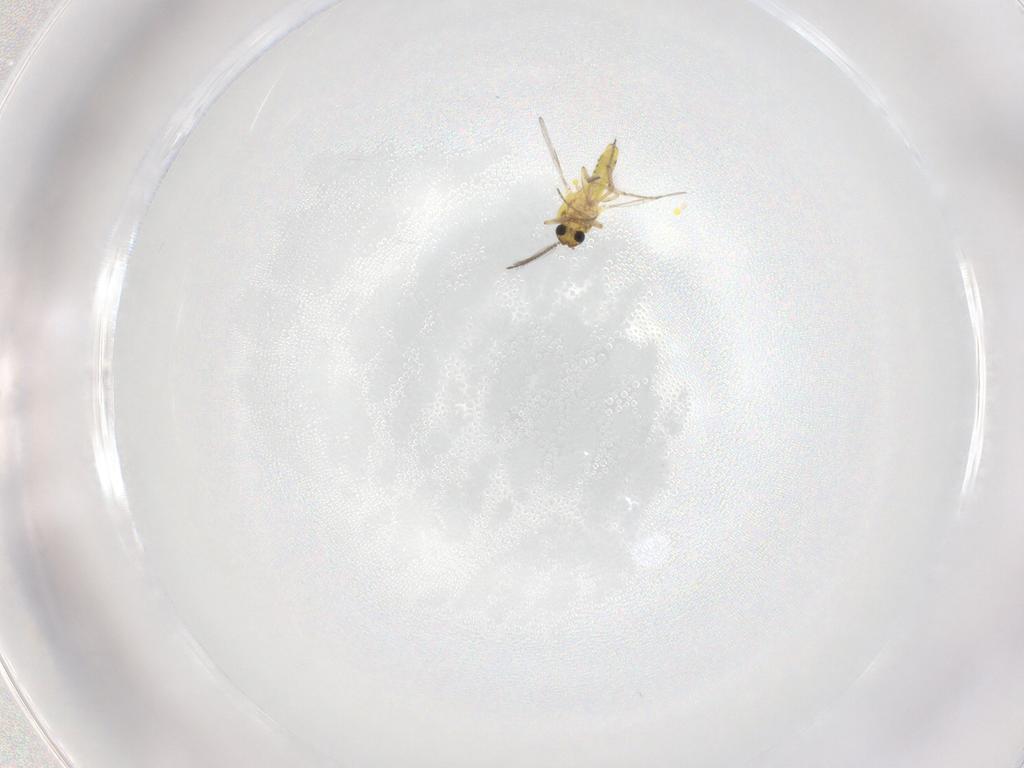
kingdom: Animalia
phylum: Arthropoda
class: Insecta
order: Diptera
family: Ceratopogonidae
